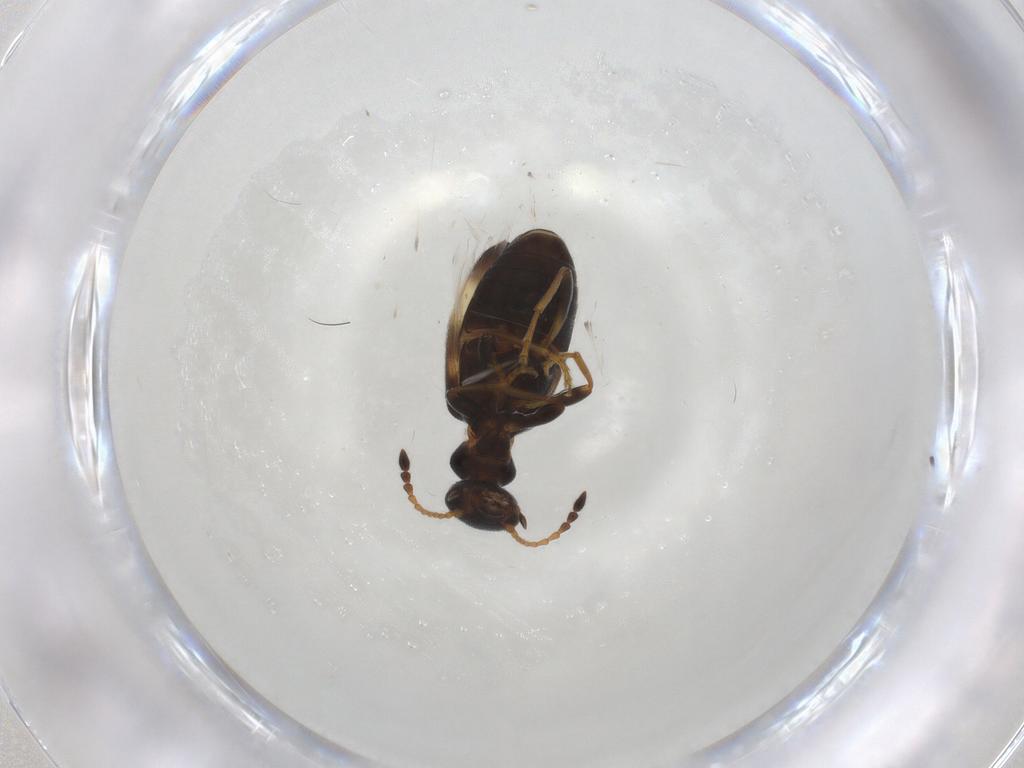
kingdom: Animalia
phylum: Arthropoda
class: Insecta
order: Coleoptera
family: Anthicidae
